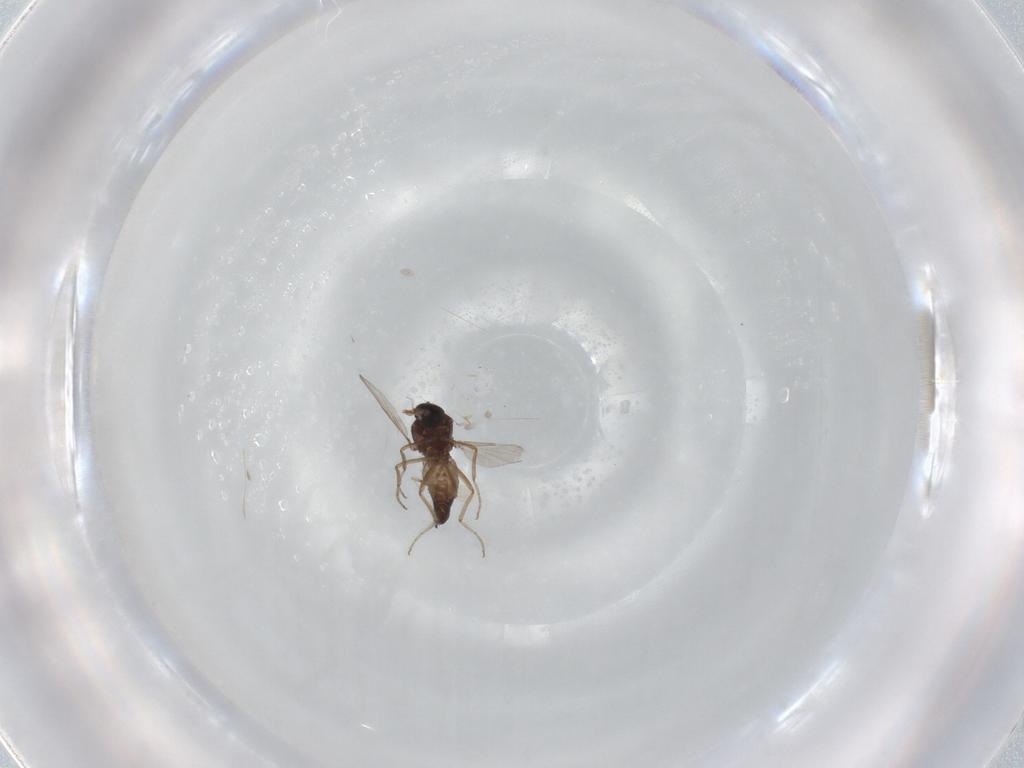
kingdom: Animalia
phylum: Arthropoda
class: Insecta
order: Diptera
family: Ceratopogonidae
